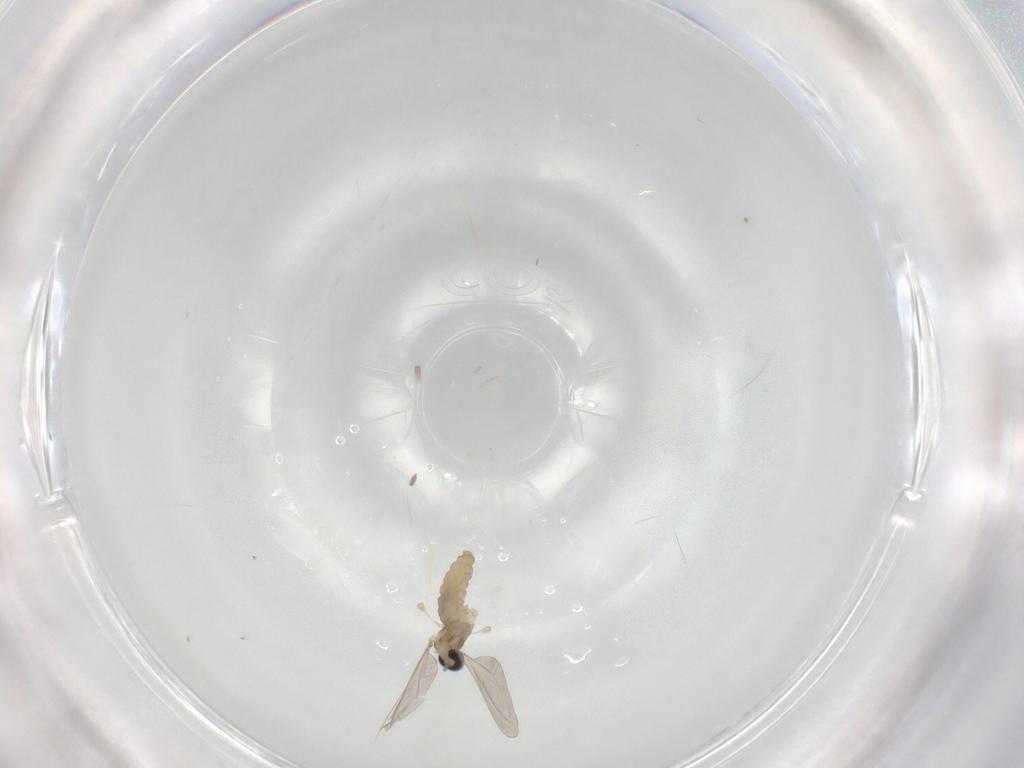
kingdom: Animalia
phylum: Arthropoda
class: Insecta
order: Diptera
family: Cecidomyiidae
